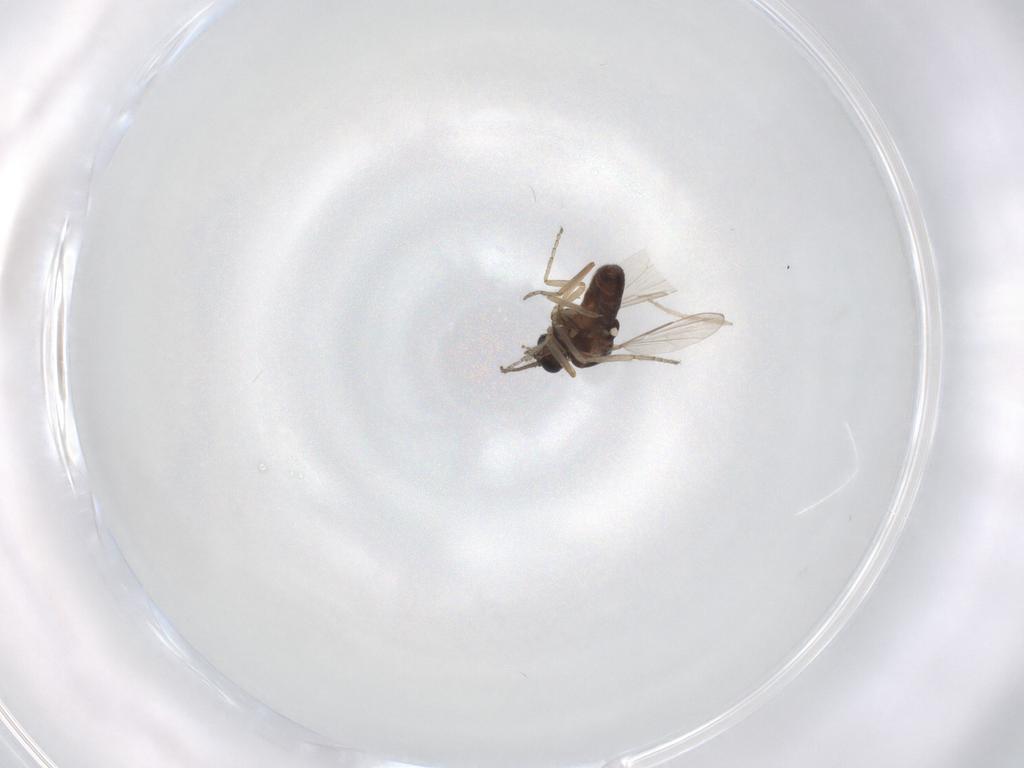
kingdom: Animalia
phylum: Arthropoda
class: Insecta
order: Diptera
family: Ceratopogonidae
